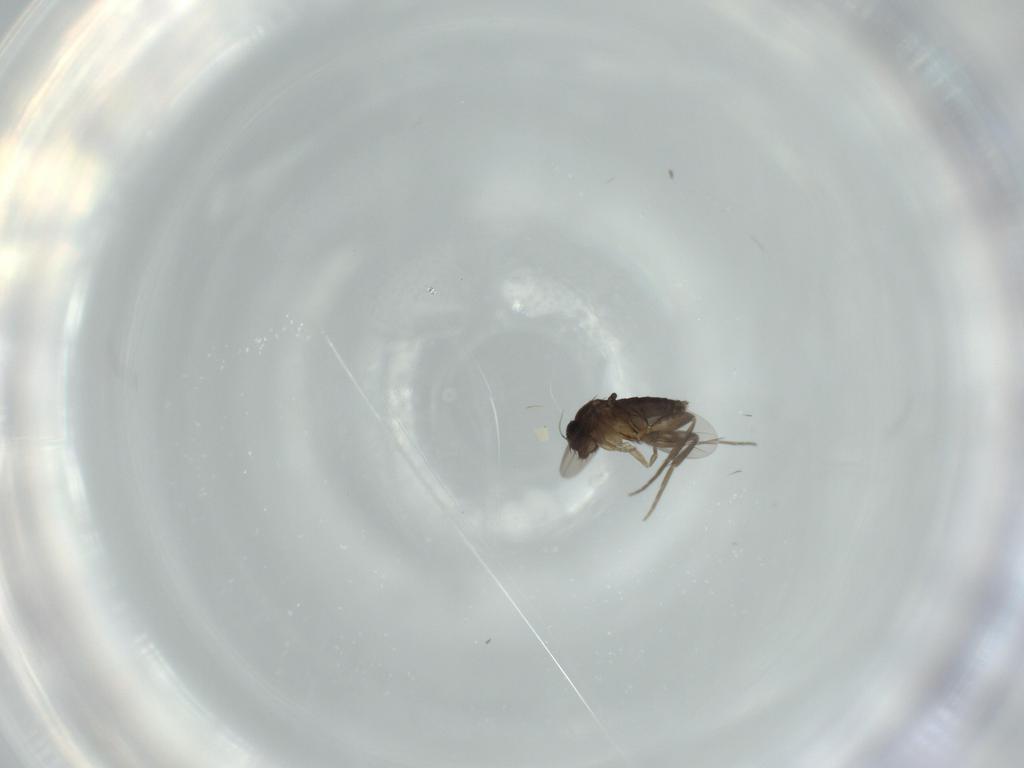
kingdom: Animalia
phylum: Arthropoda
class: Insecta
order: Diptera
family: Phoridae
